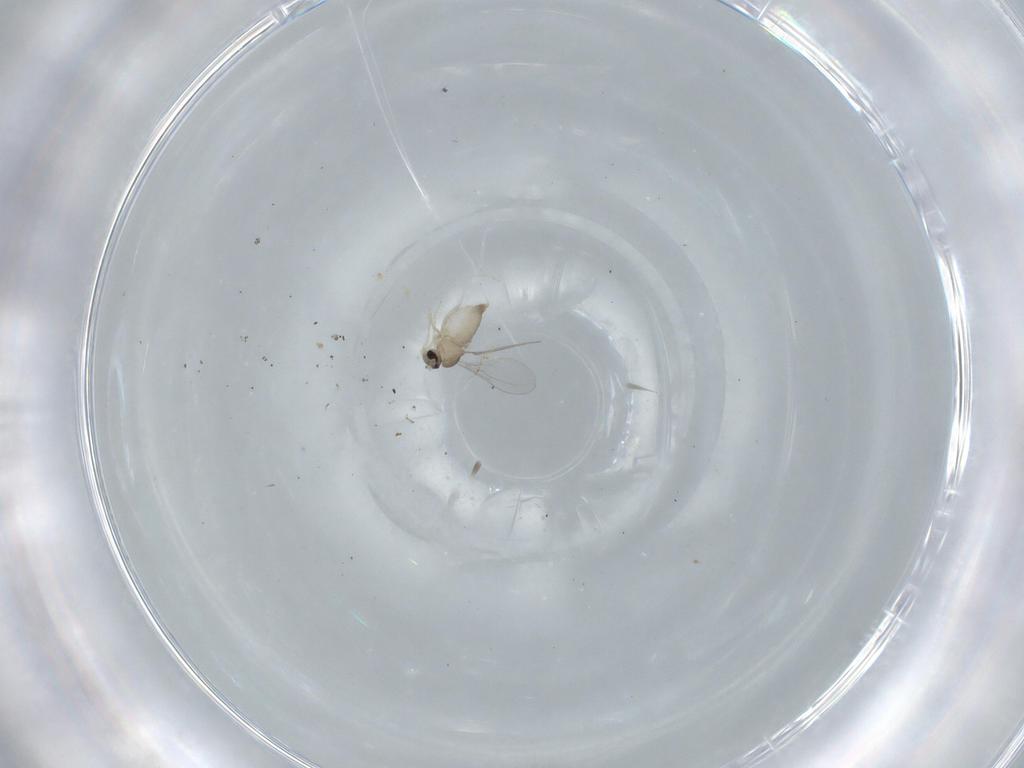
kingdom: Animalia
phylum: Arthropoda
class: Insecta
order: Diptera
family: Cecidomyiidae
